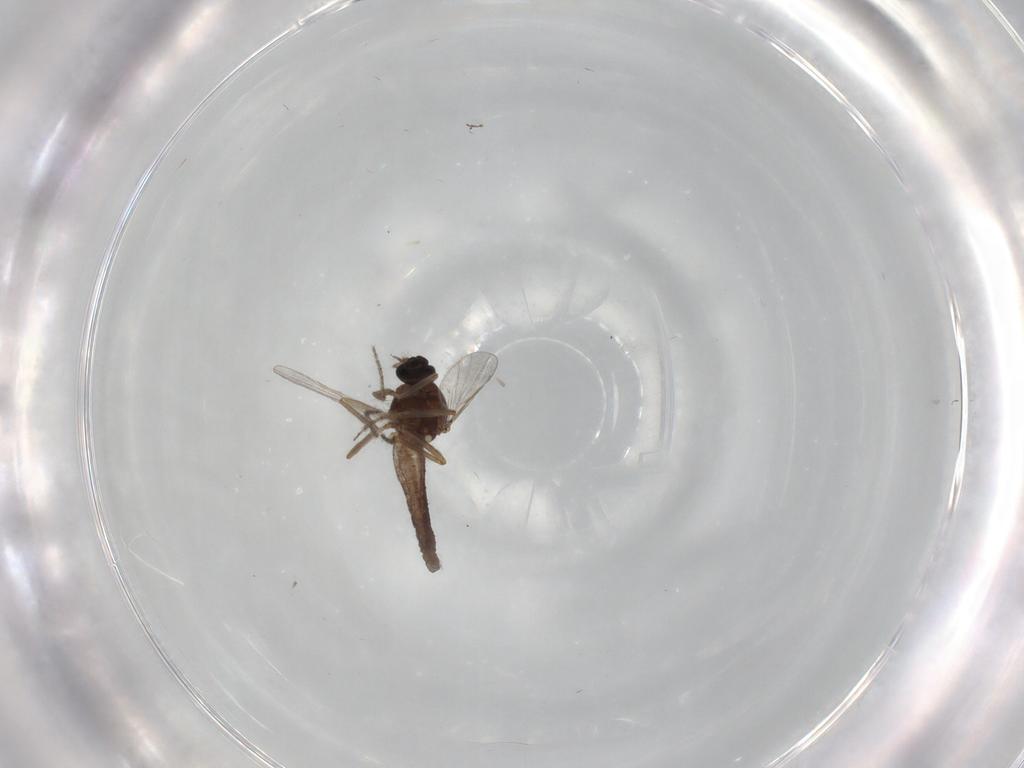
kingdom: Animalia
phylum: Arthropoda
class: Insecta
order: Diptera
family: Ceratopogonidae
